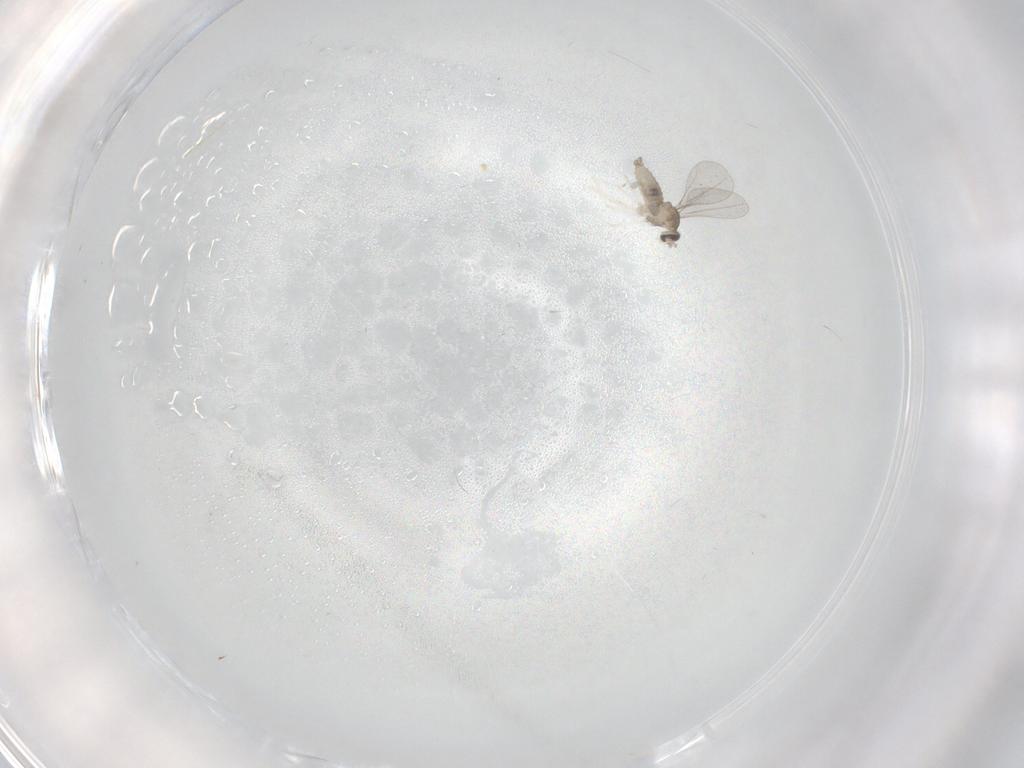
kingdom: Animalia
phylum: Arthropoda
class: Insecta
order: Diptera
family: Cecidomyiidae
